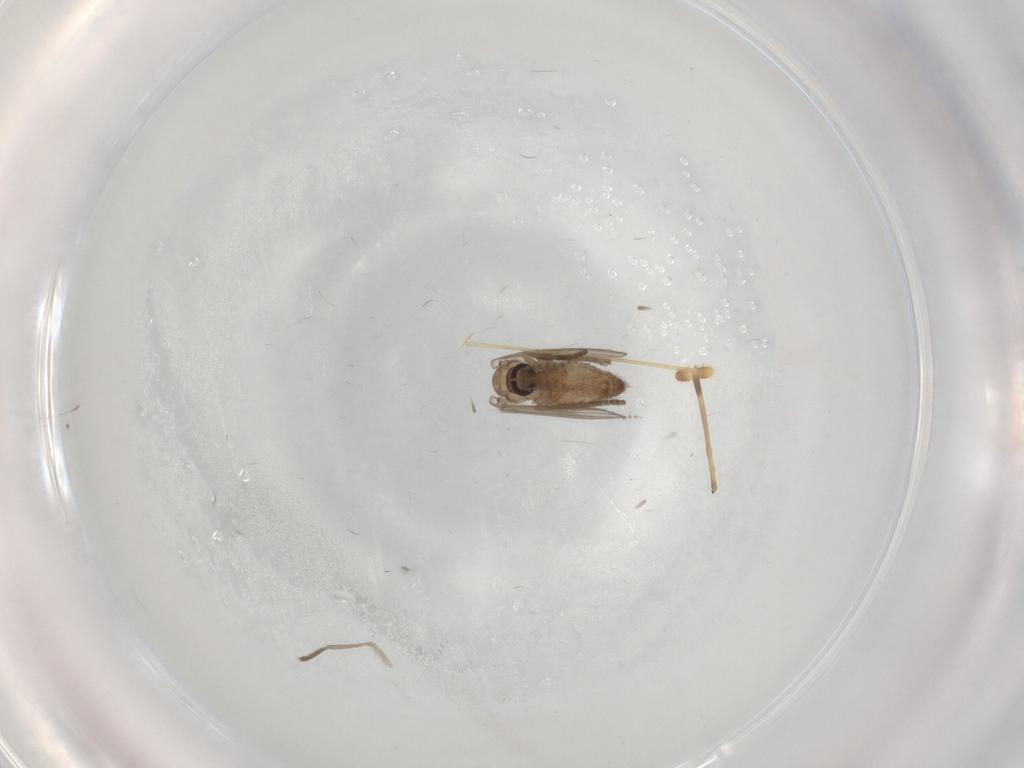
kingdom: Animalia
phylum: Arthropoda
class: Insecta
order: Diptera
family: Psychodidae
